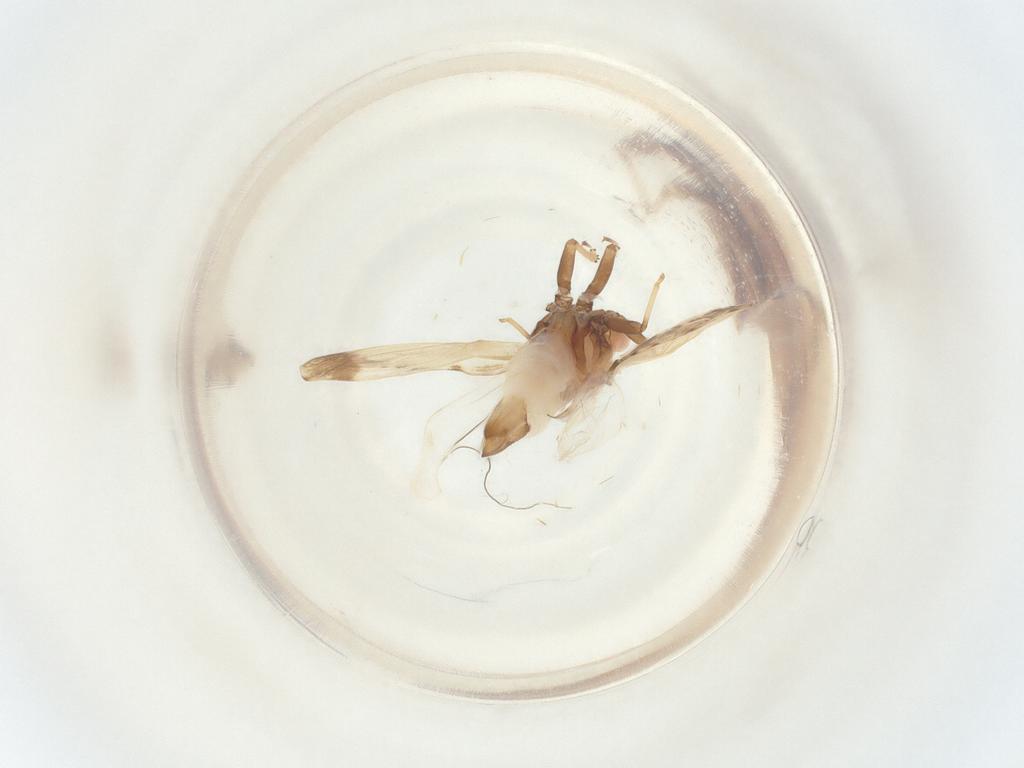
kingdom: Animalia
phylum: Arthropoda
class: Insecta
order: Hemiptera
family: Psyllidae
